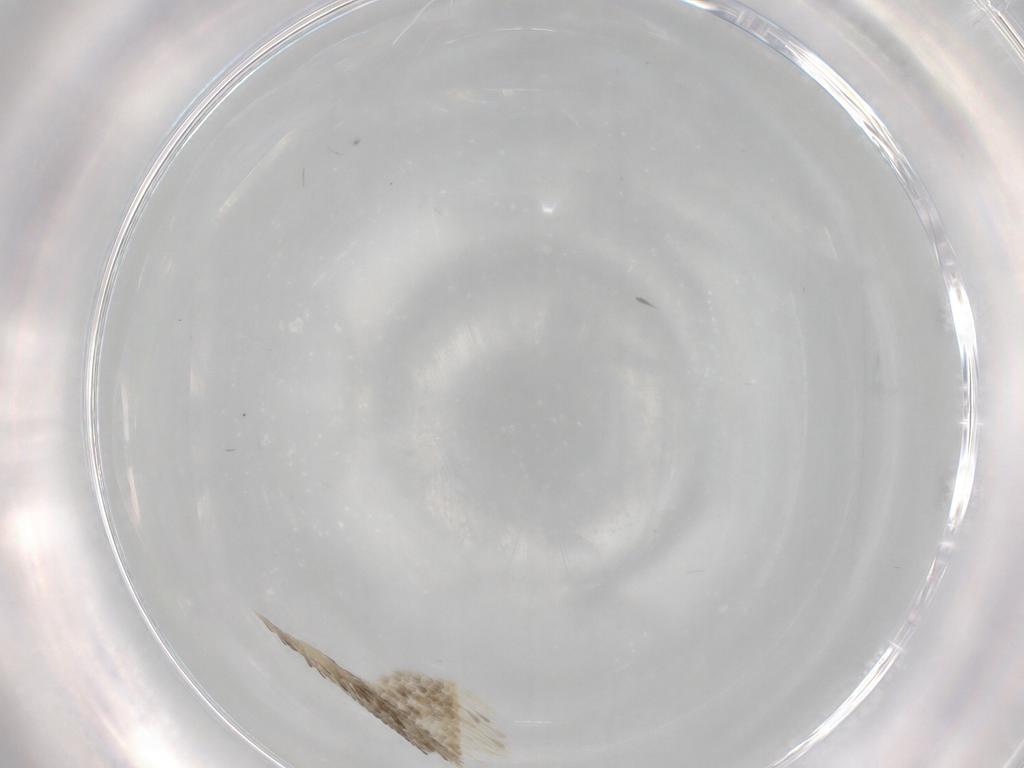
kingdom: Animalia
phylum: Arthropoda
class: Insecta
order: Lepidoptera
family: Geometridae
